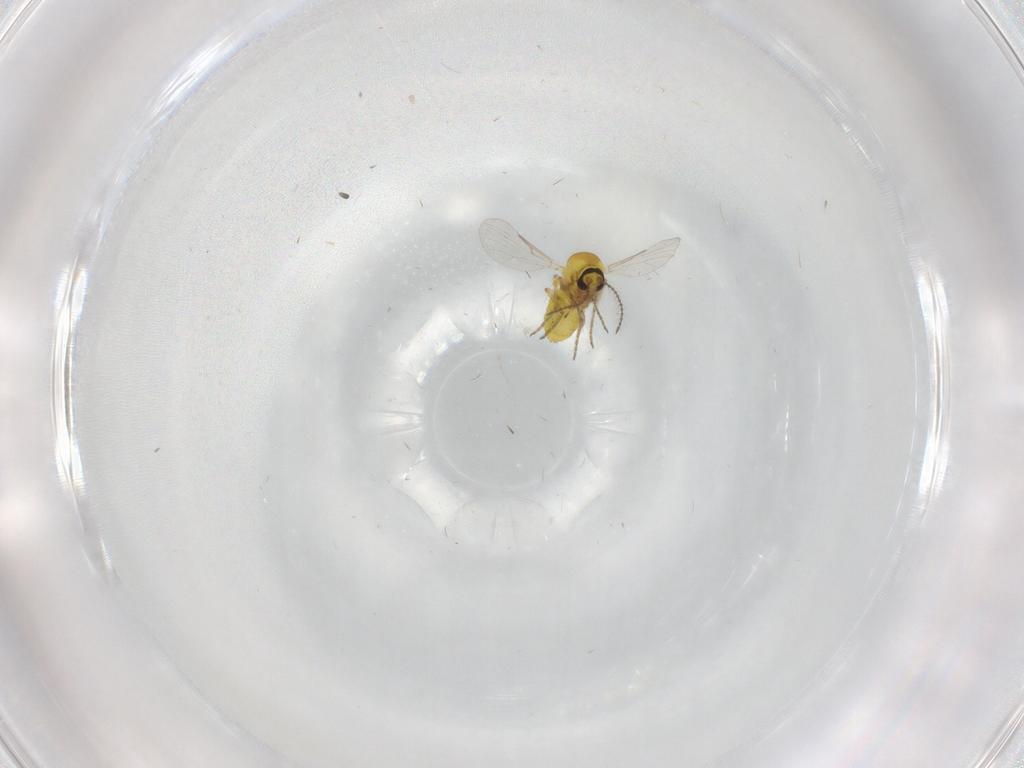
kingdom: Animalia
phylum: Arthropoda
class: Insecta
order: Diptera
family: Ceratopogonidae
